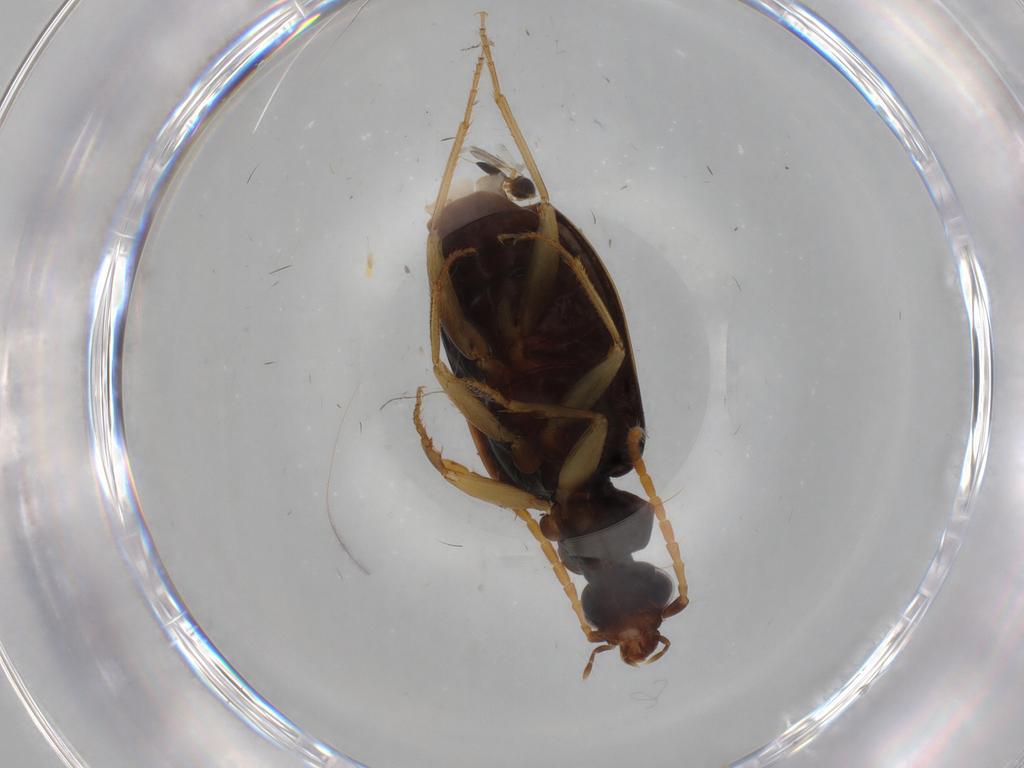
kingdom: Animalia
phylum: Arthropoda
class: Insecta
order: Coleoptera
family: Carabidae
